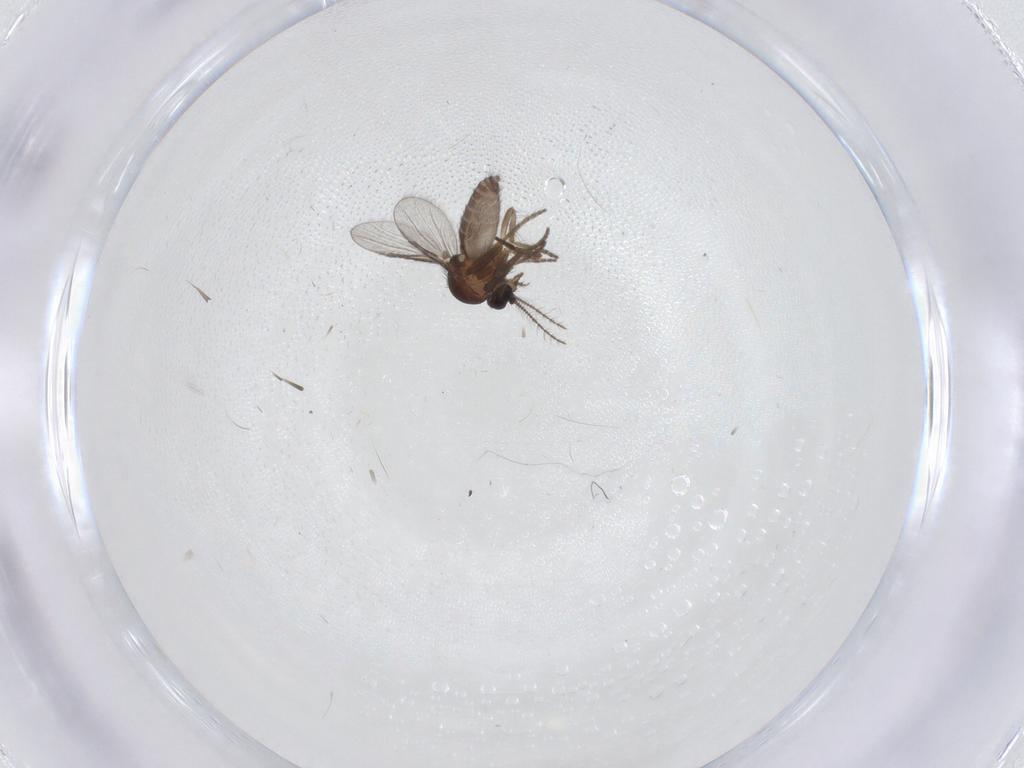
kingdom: Animalia
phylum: Arthropoda
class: Insecta
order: Diptera
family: Ceratopogonidae
